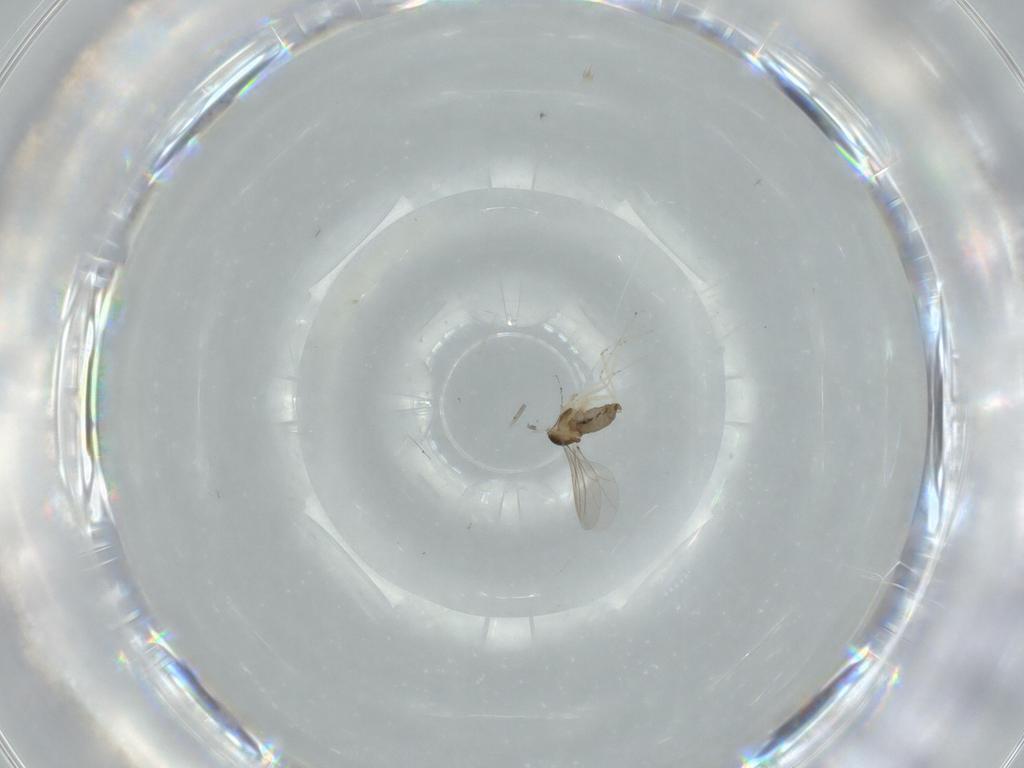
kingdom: Animalia
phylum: Arthropoda
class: Insecta
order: Diptera
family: Cecidomyiidae
